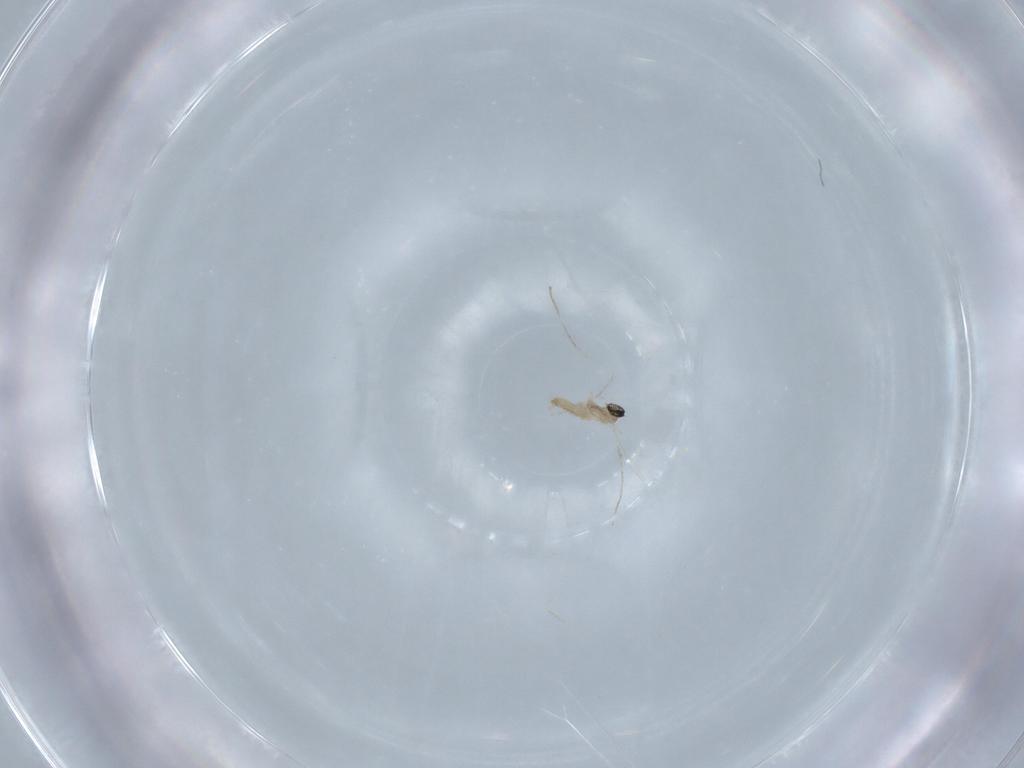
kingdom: Animalia
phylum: Arthropoda
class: Insecta
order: Diptera
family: Cecidomyiidae
